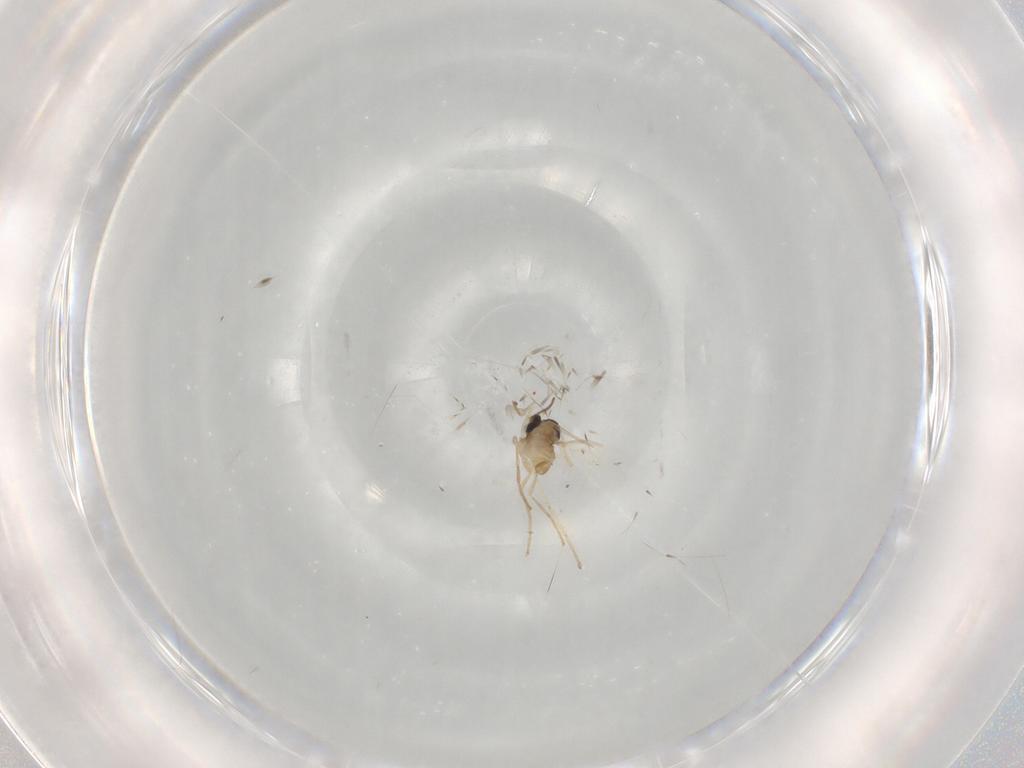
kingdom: Animalia
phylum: Arthropoda
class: Insecta
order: Diptera
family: Cecidomyiidae
